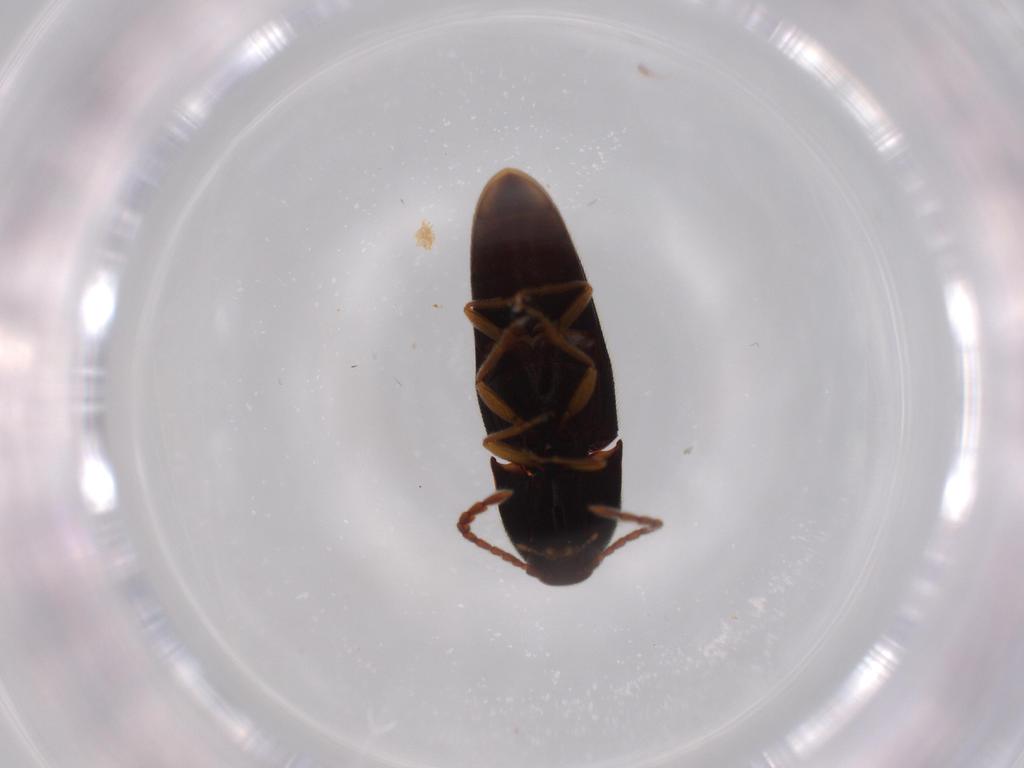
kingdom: Animalia
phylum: Arthropoda
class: Insecta
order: Coleoptera
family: Elateridae
